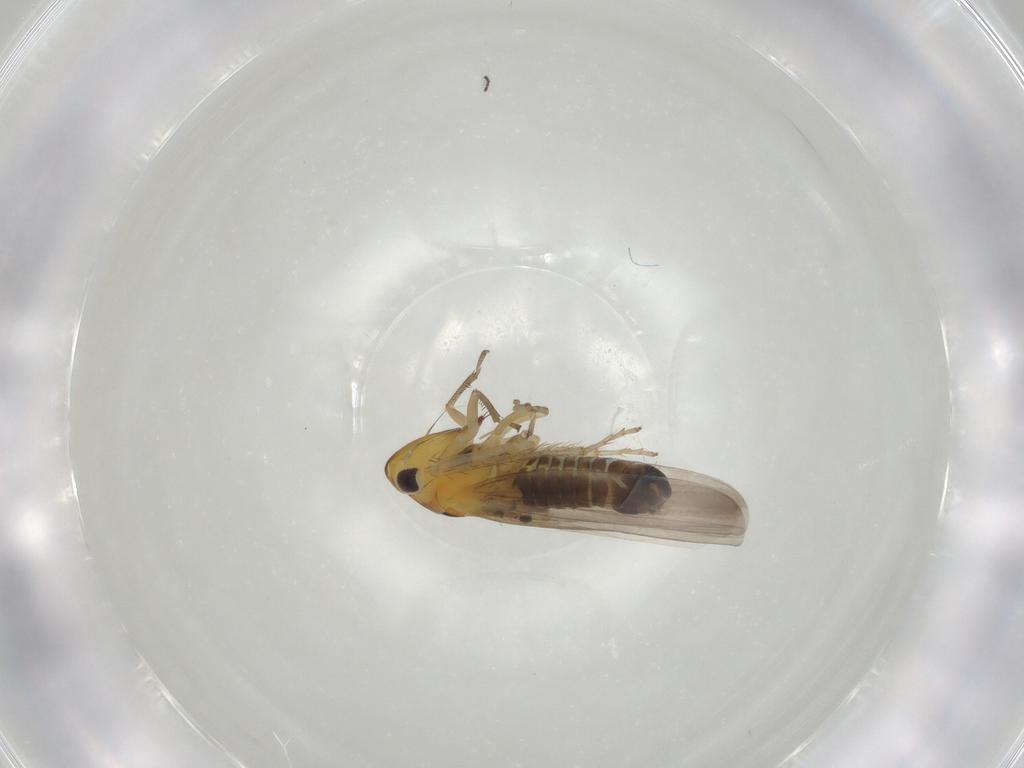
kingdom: Animalia
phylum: Arthropoda
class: Insecta
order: Hemiptera
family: Cicadellidae
